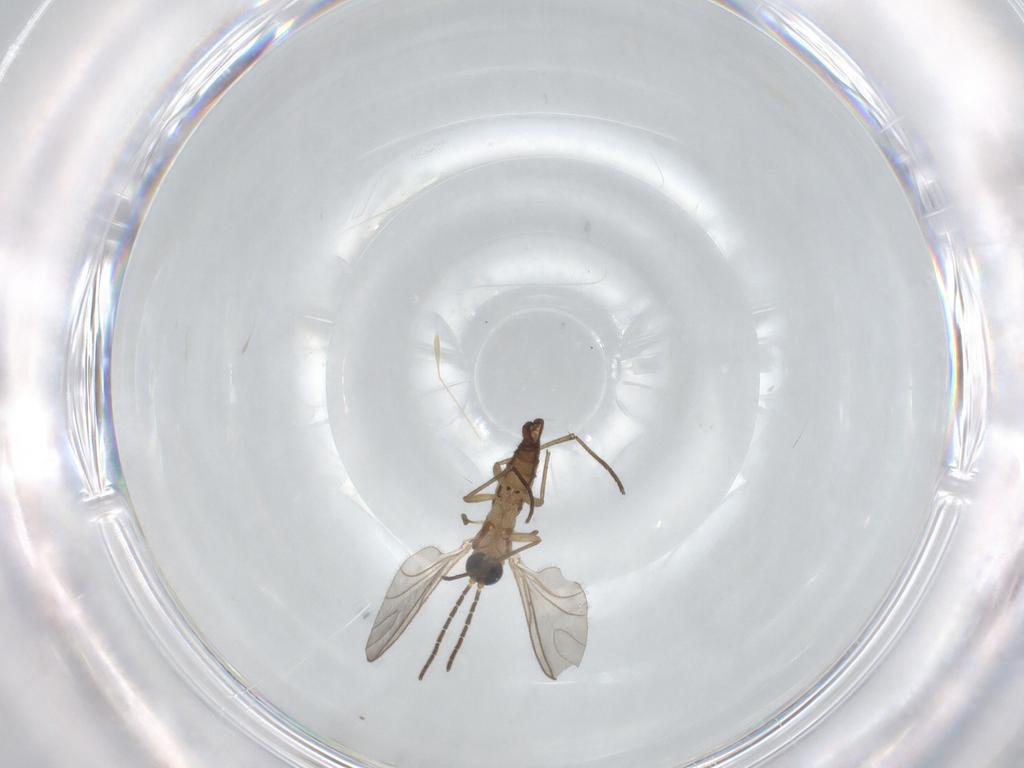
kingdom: Animalia
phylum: Arthropoda
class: Insecta
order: Diptera
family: Sciaridae
